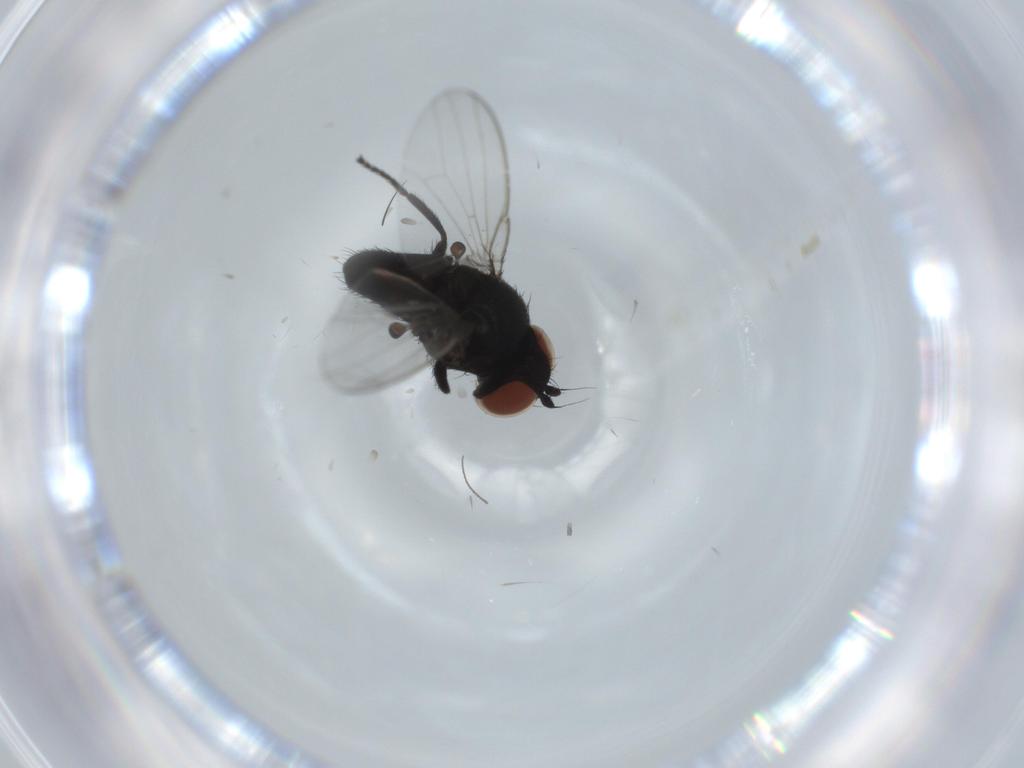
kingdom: Animalia
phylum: Arthropoda
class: Insecta
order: Diptera
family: Milichiidae
